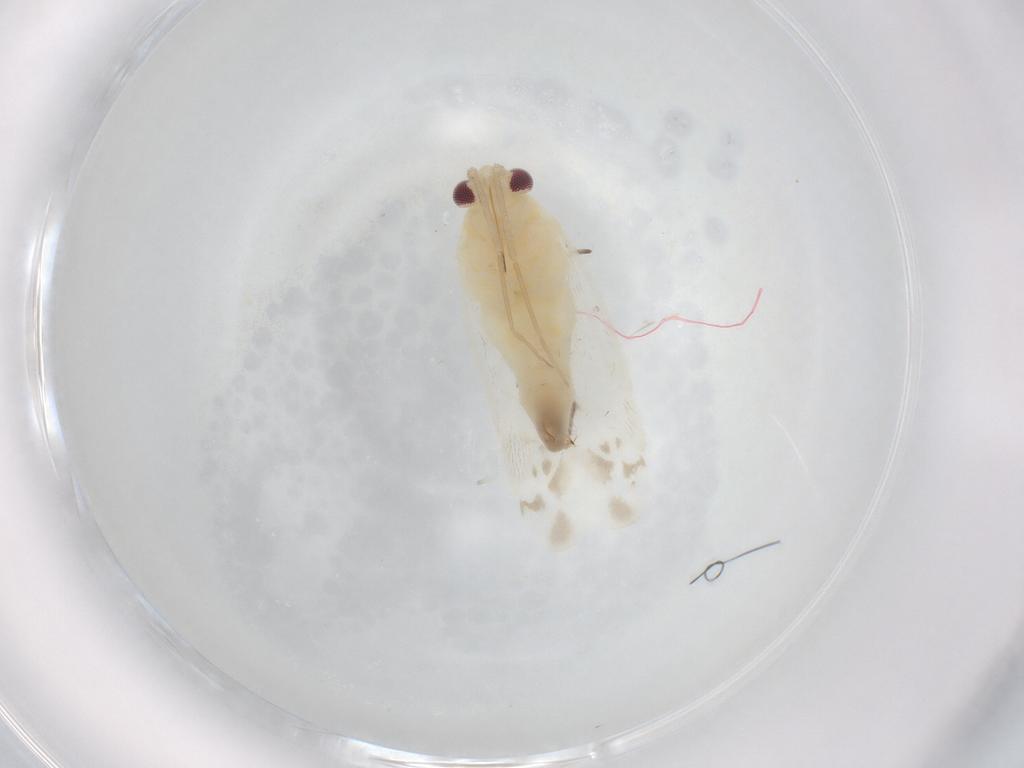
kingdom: Animalia
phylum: Arthropoda
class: Insecta
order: Hemiptera
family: Miridae
